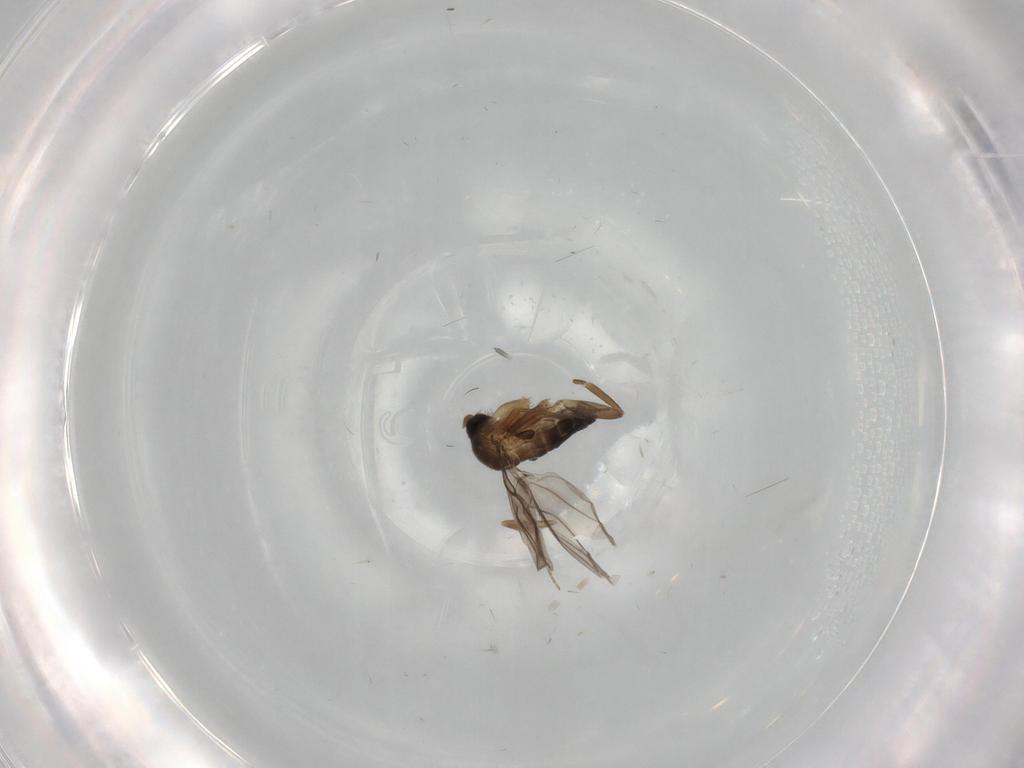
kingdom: Animalia
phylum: Arthropoda
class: Insecta
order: Diptera
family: Phoridae
